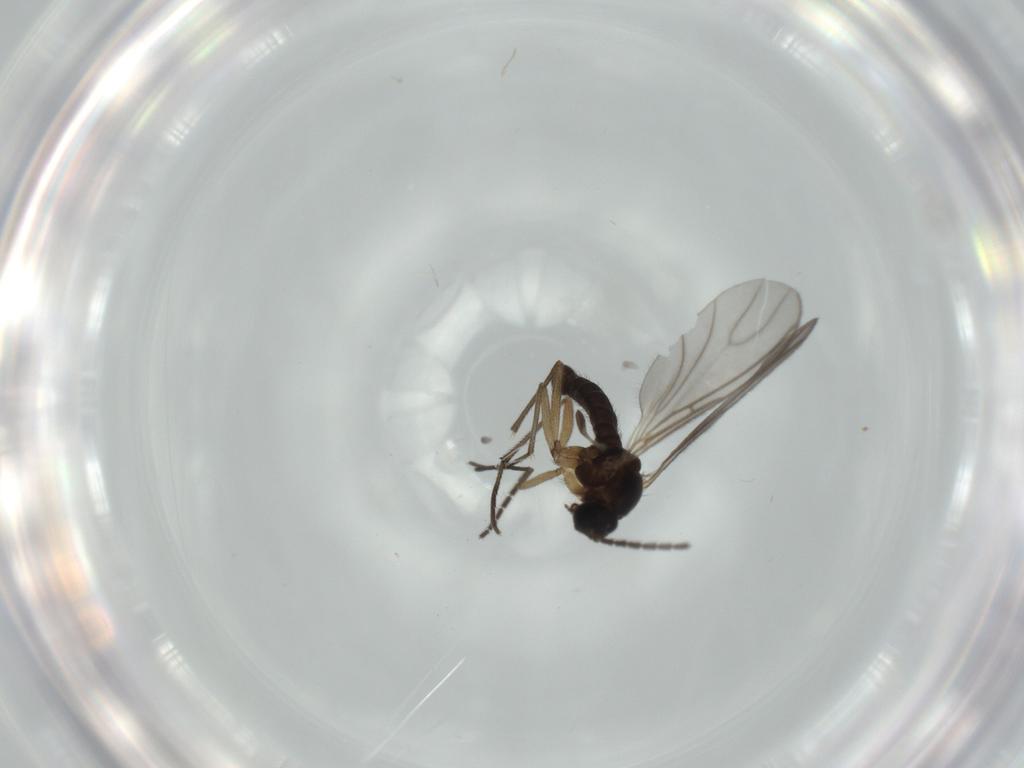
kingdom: Animalia
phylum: Arthropoda
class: Insecta
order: Diptera
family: Sciaridae
